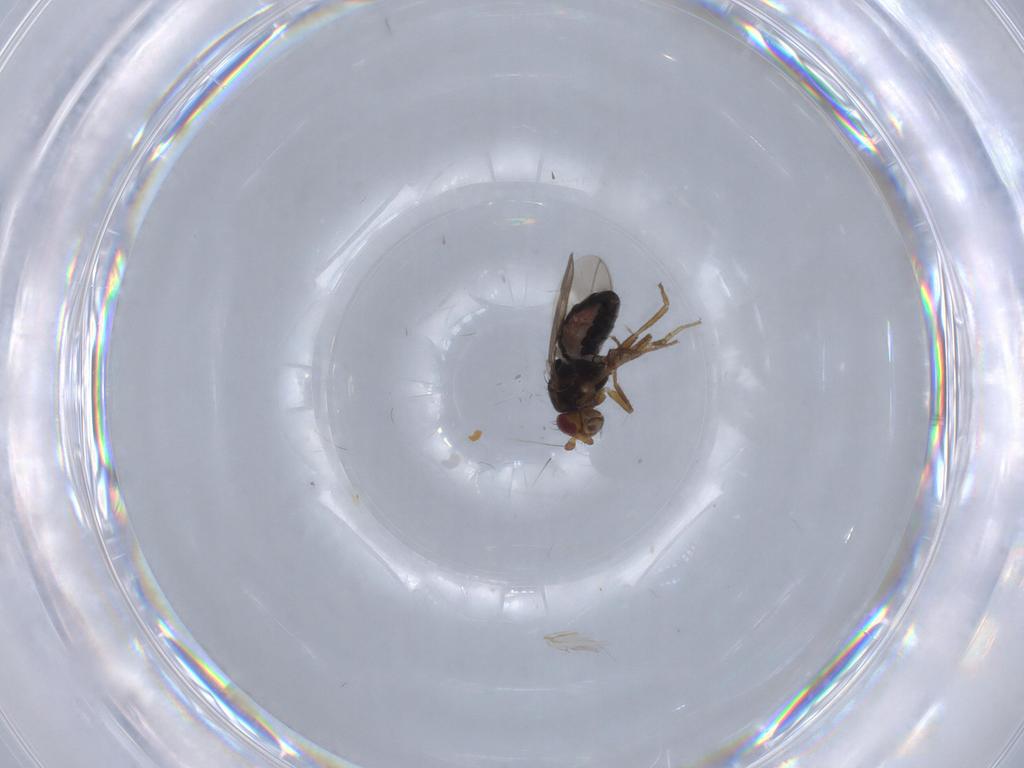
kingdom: Animalia
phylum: Arthropoda
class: Insecta
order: Diptera
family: Sphaeroceridae
